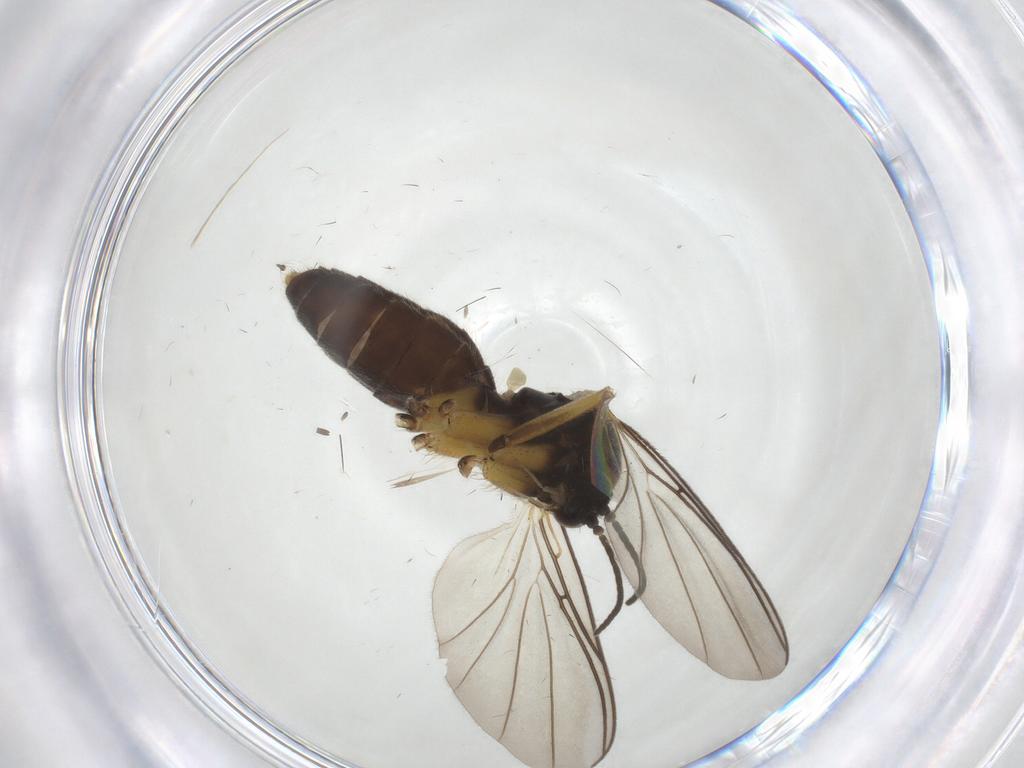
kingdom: Animalia
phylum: Arthropoda
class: Insecta
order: Diptera
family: Mycetophilidae
